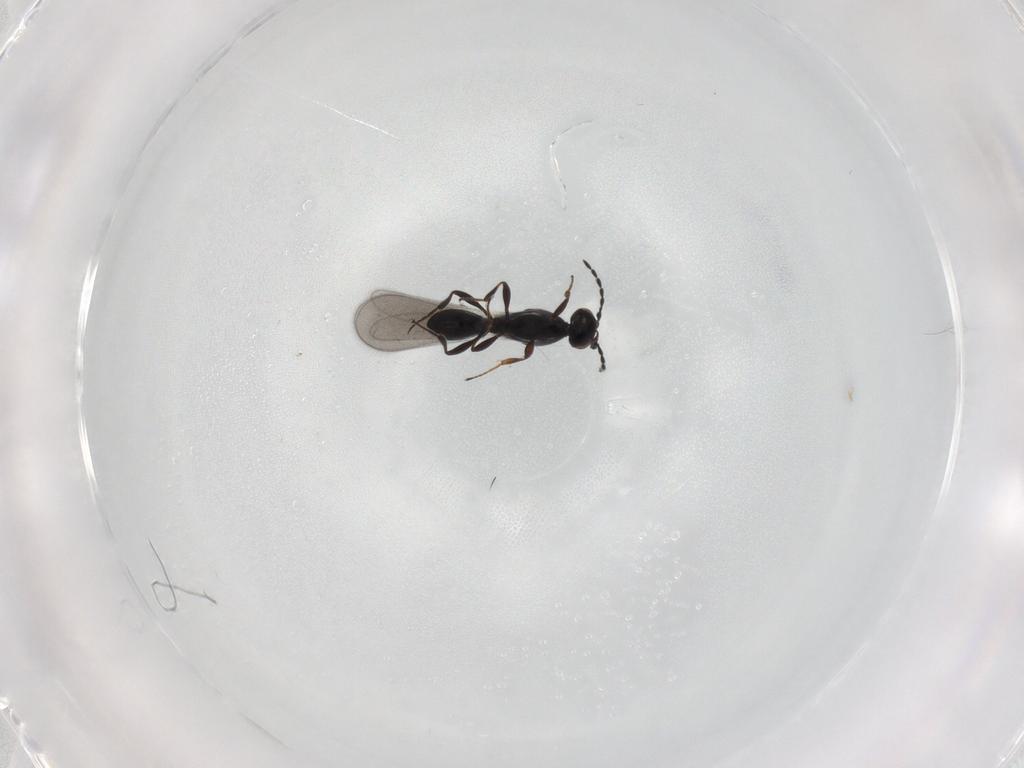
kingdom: Animalia
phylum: Arthropoda
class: Insecta
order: Hymenoptera
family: Platygastridae
